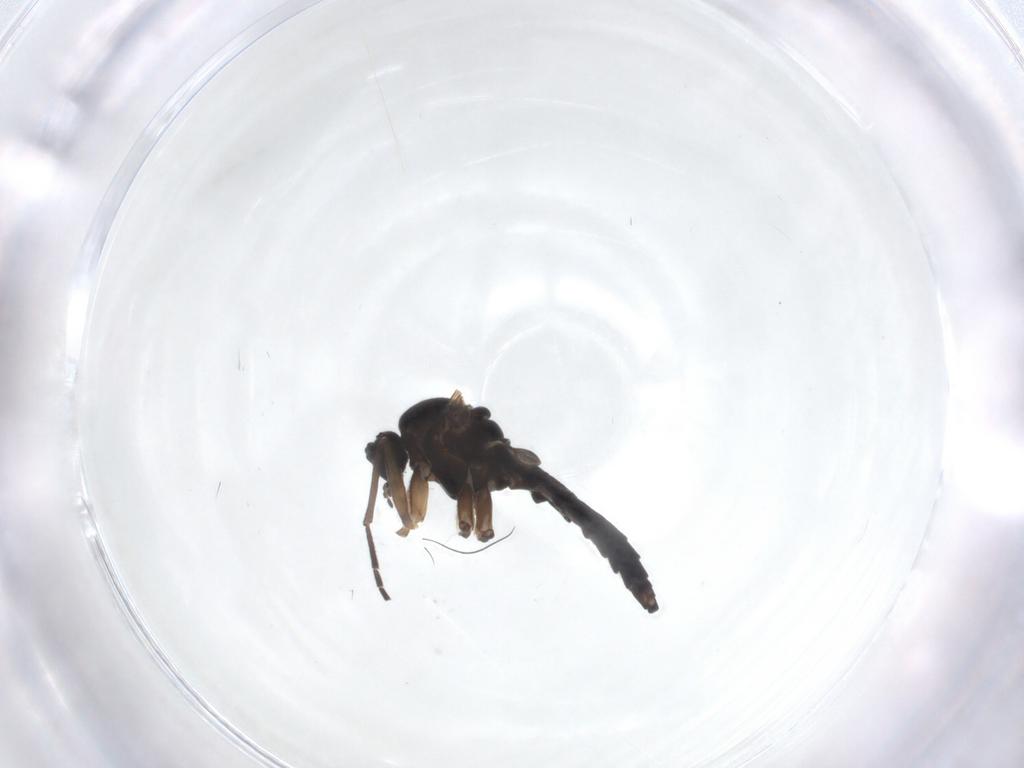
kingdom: Animalia
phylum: Arthropoda
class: Insecta
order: Diptera
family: Sciaridae
